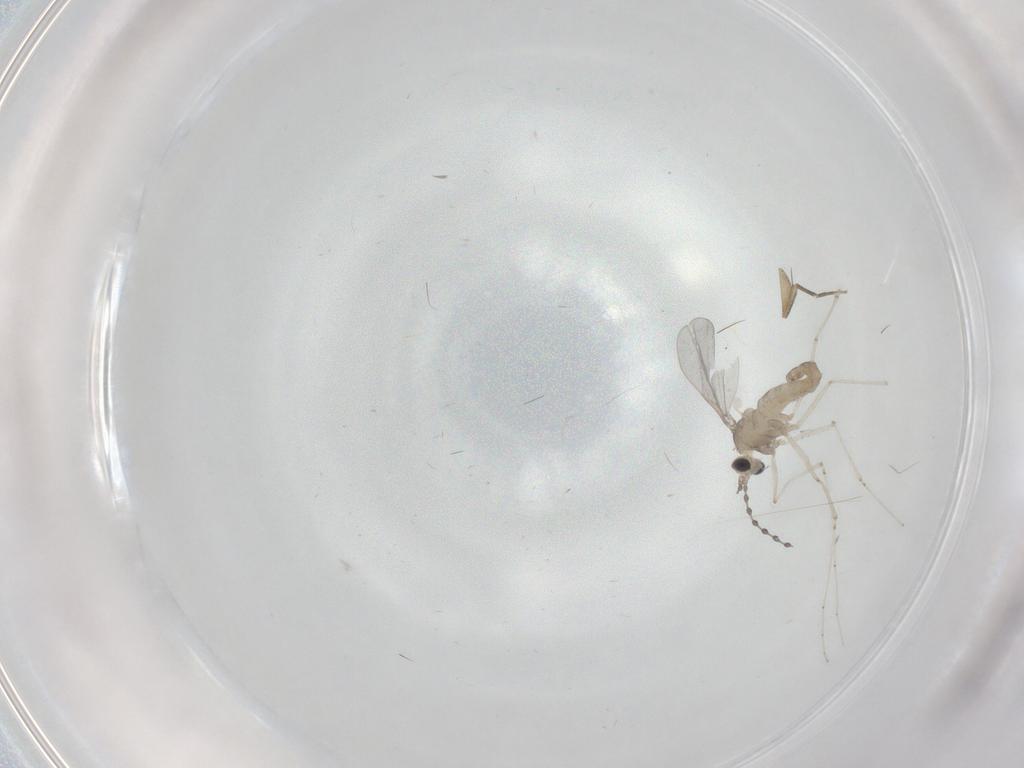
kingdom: Animalia
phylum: Arthropoda
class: Insecta
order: Diptera
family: Cecidomyiidae
